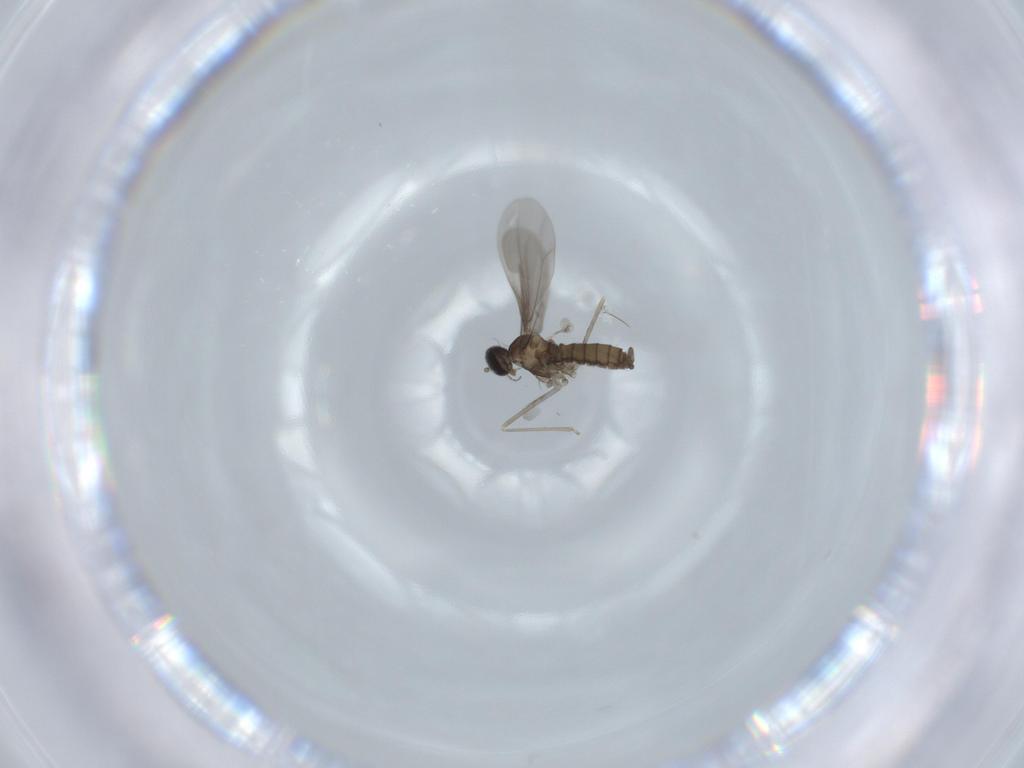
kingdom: Animalia
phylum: Arthropoda
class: Insecta
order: Diptera
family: Cecidomyiidae
